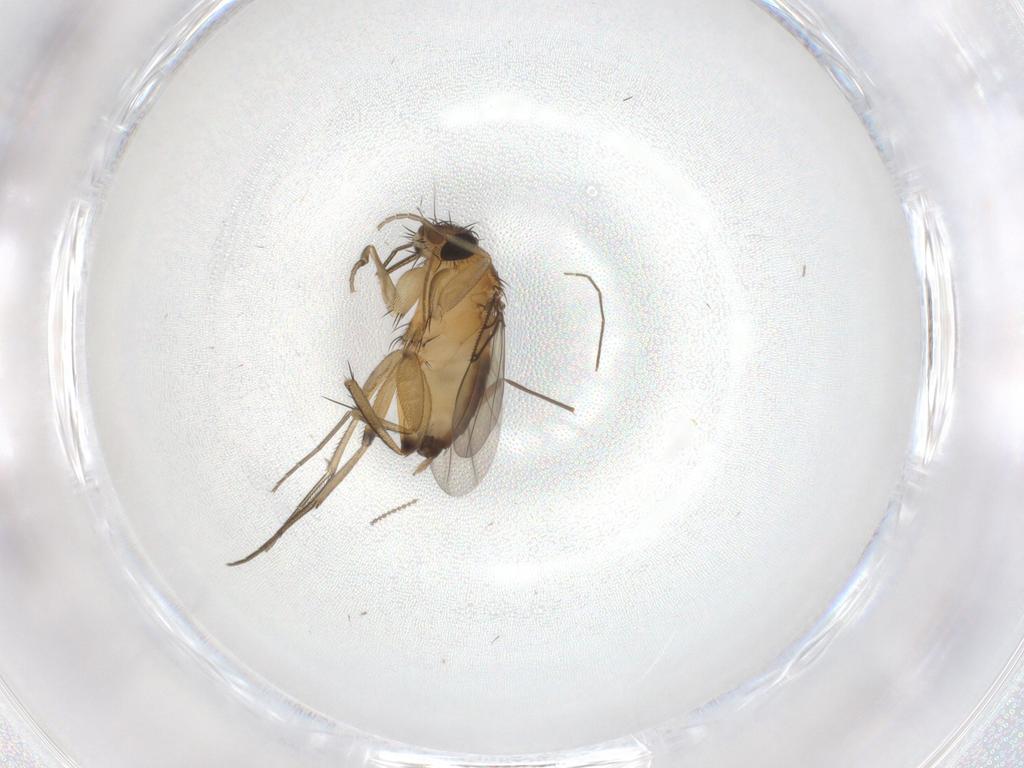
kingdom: Animalia
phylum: Arthropoda
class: Insecta
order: Diptera
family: Phoridae
